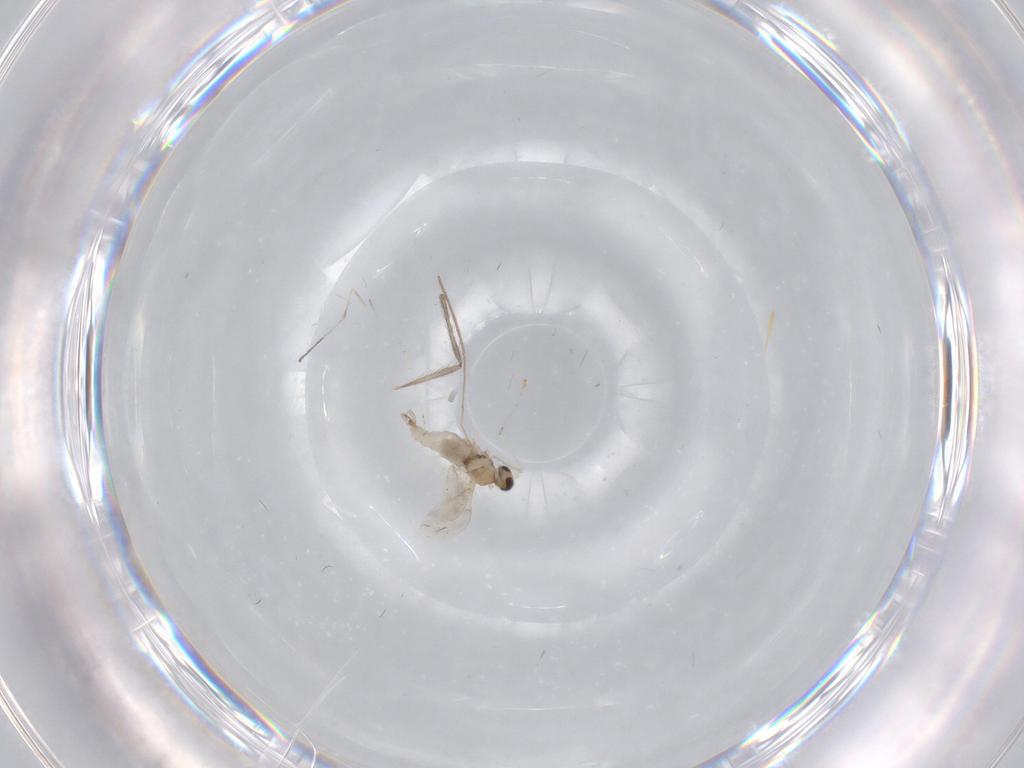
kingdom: Animalia
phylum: Arthropoda
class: Insecta
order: Diptera
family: Cecidomyiidae
